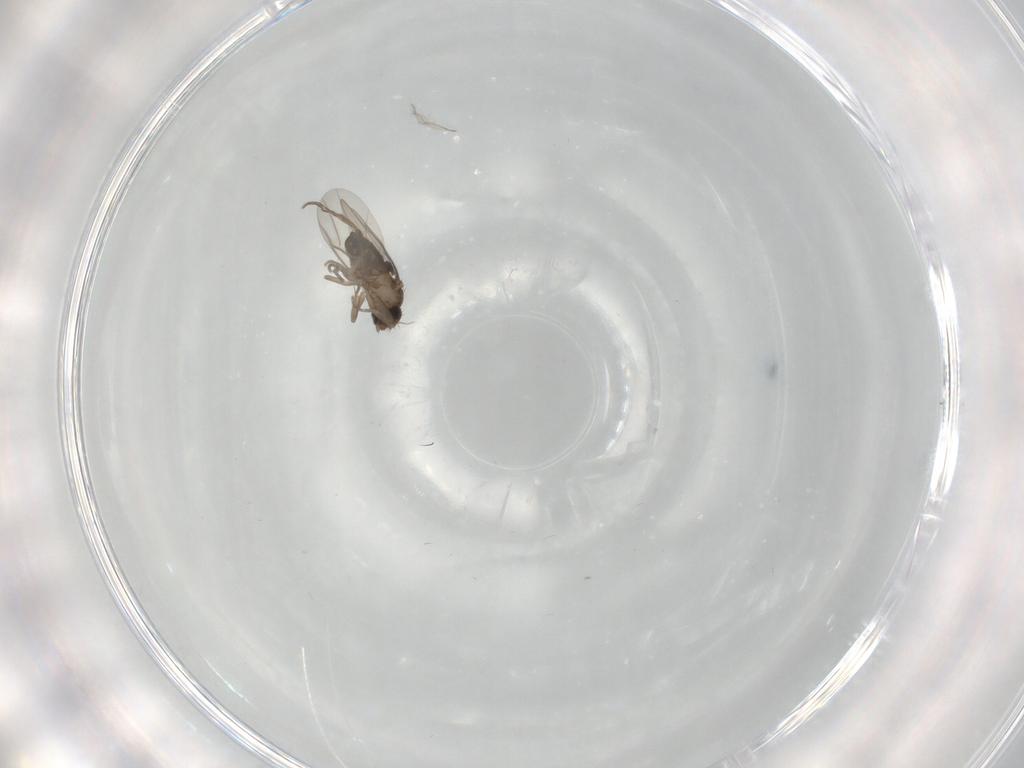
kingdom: Animalia
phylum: Arthropoda
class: Insecta
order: Diptera
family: Phoridae
